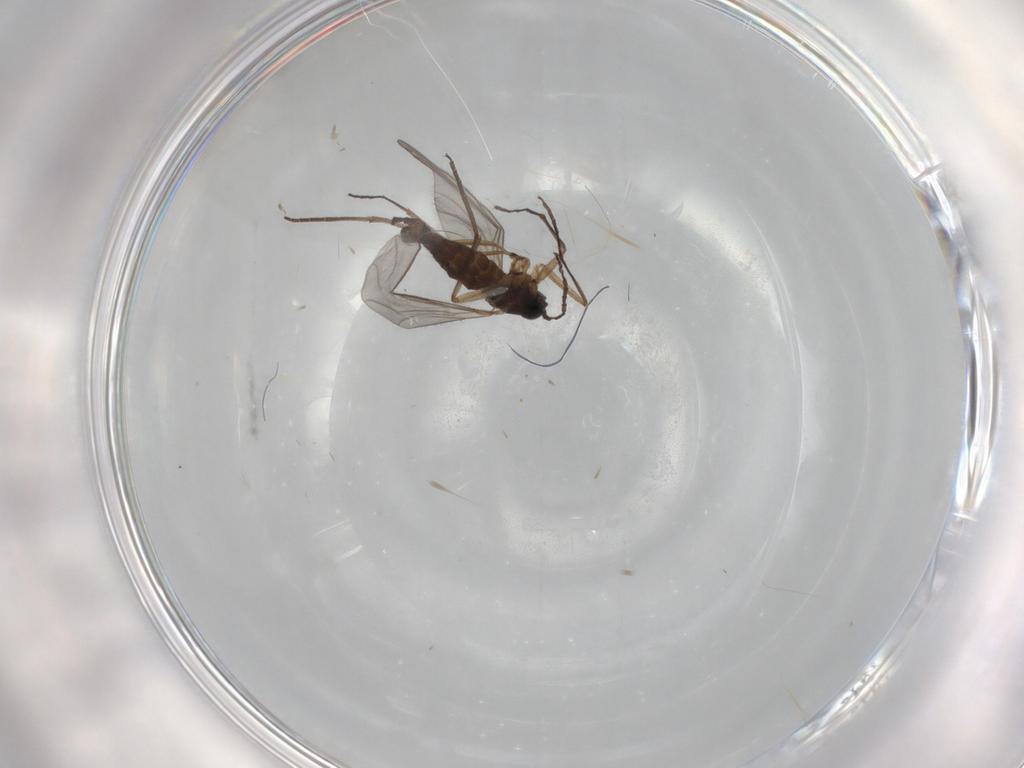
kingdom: Animalia
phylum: Arthropoda
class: Insecta
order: Diptera
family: Sciaridae
